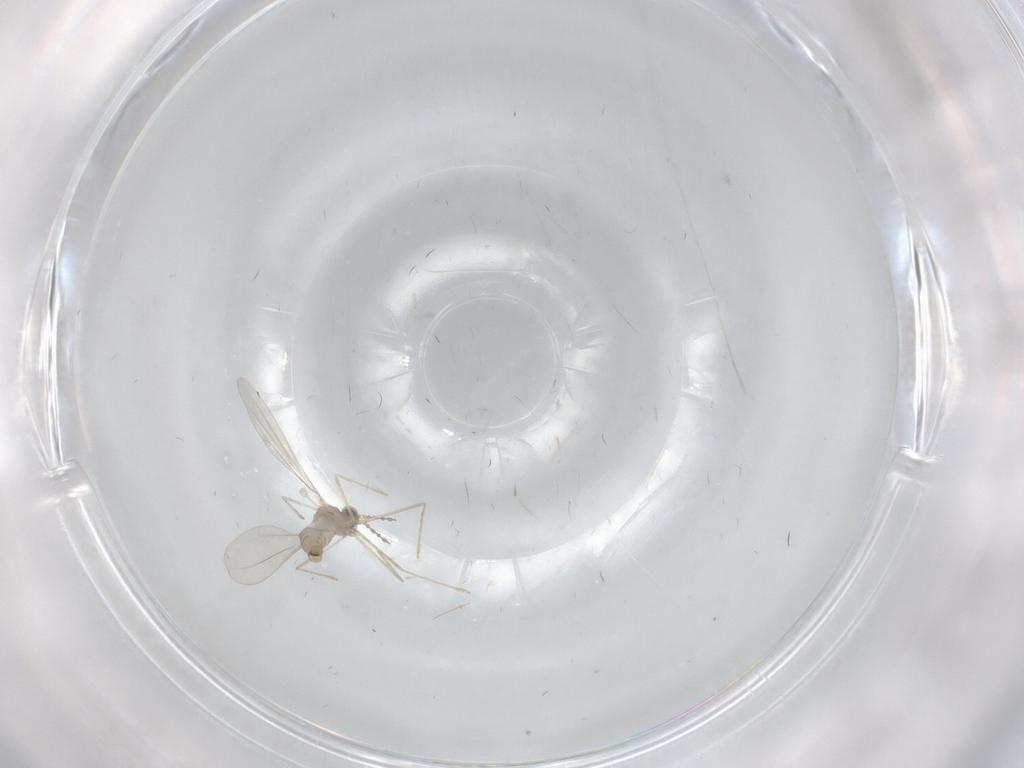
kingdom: Animalia
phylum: Arthropoda
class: Insecta
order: Diptera
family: Phoridae
